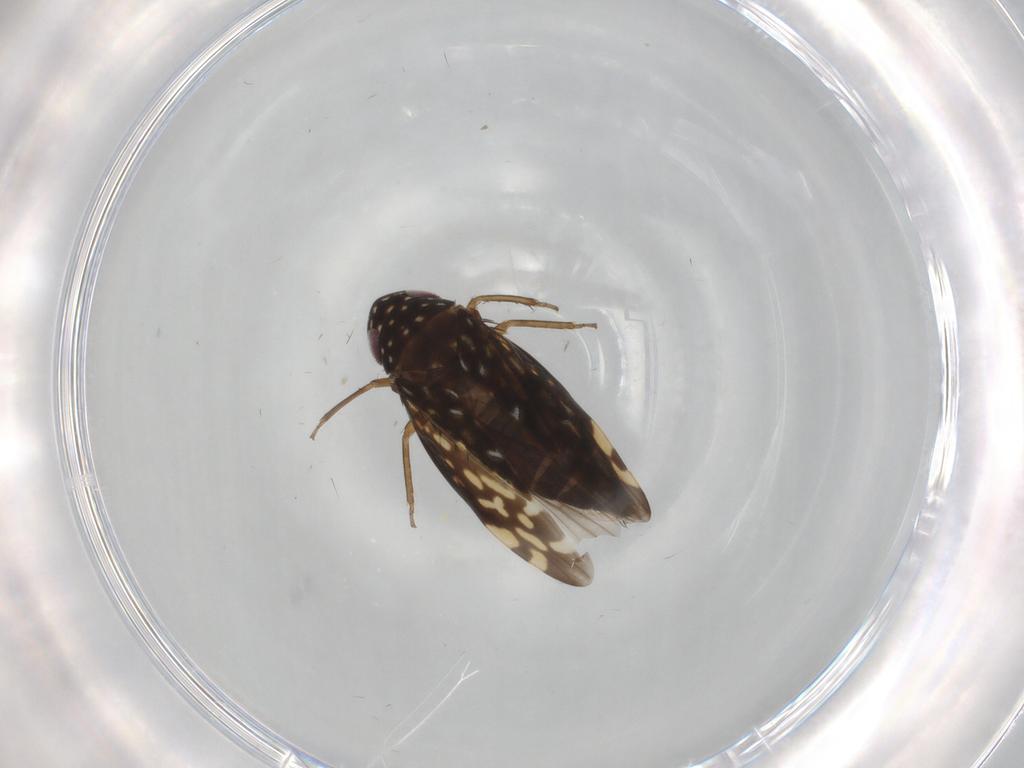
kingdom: Animalia
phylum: Arthropoda
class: Insecta
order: Hemiptera
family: Cicadellidae
